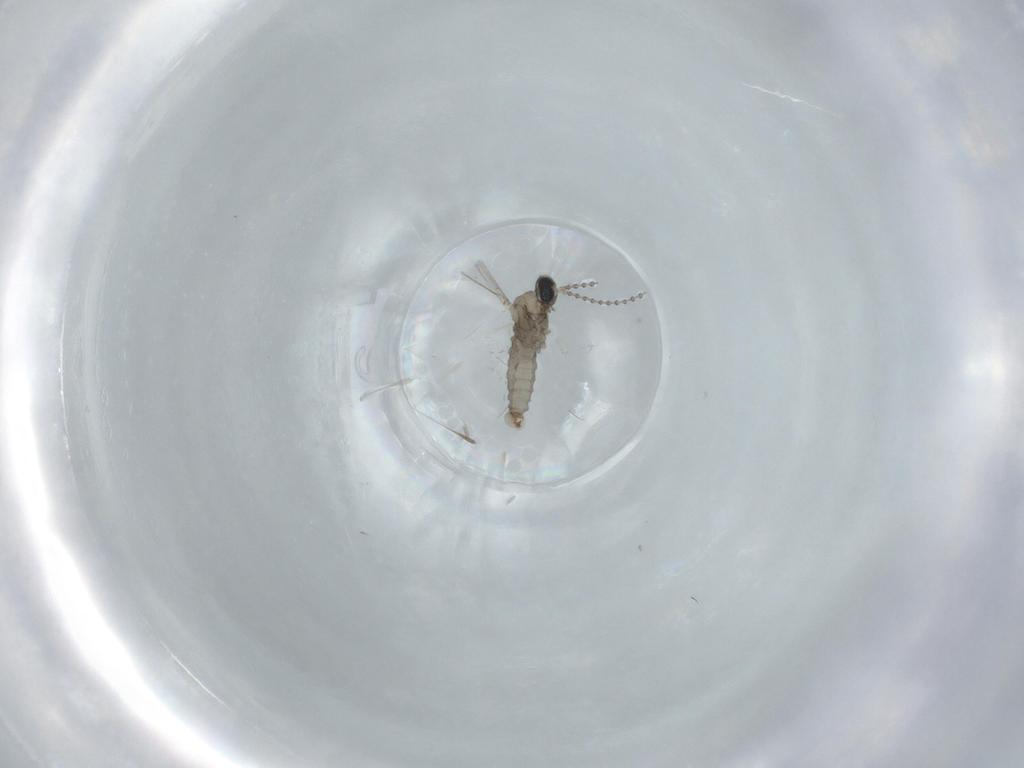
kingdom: Animalia
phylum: Arthropoda
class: Insecta
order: Diptera
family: Cecidomyiidae
